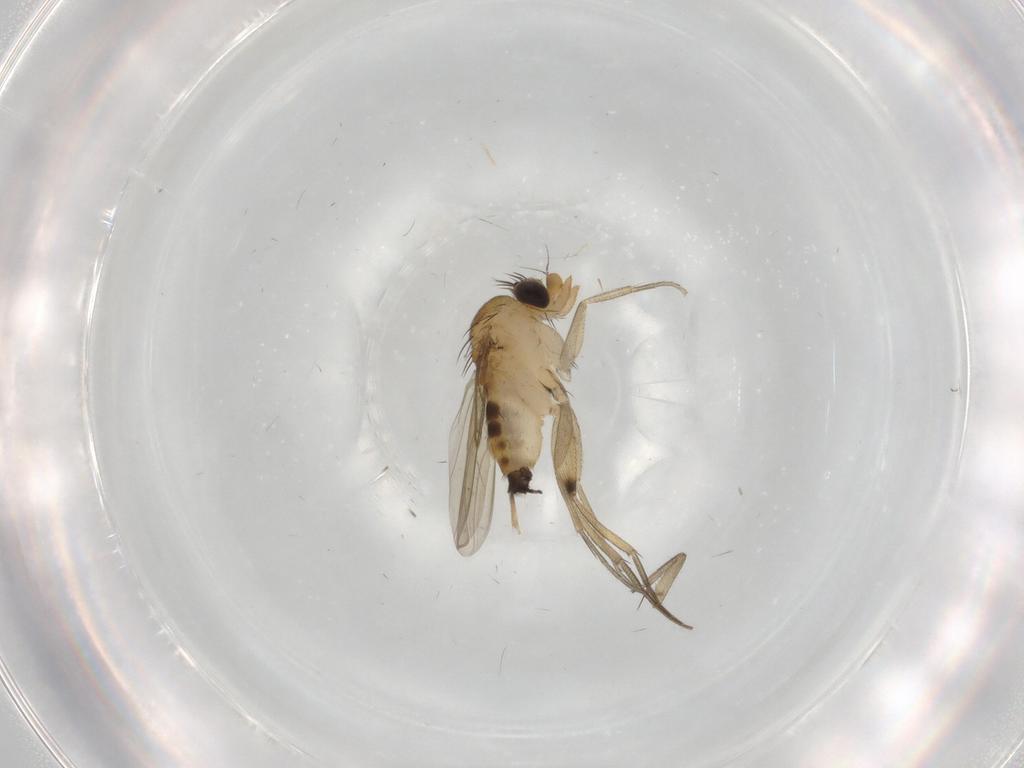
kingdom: Animalia
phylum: Arthropoda
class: Insecta
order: Diptera
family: Phoridae
